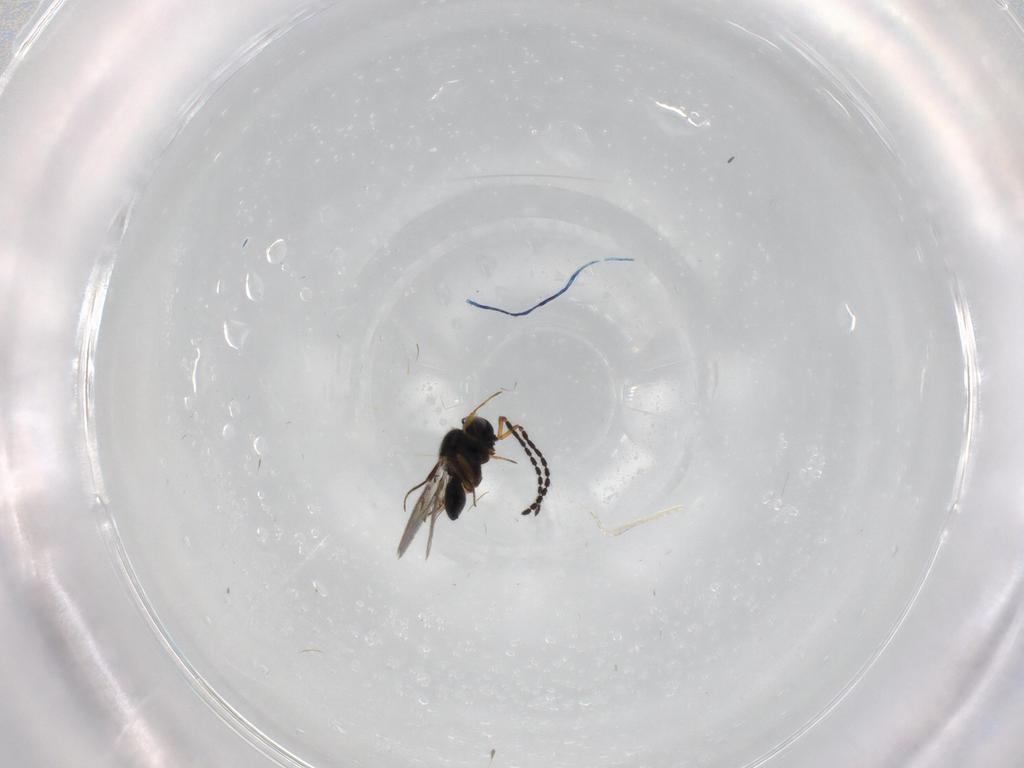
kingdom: Animalia
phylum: Arthropoda
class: Insecta
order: Hymenoptera
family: Scelionidae
